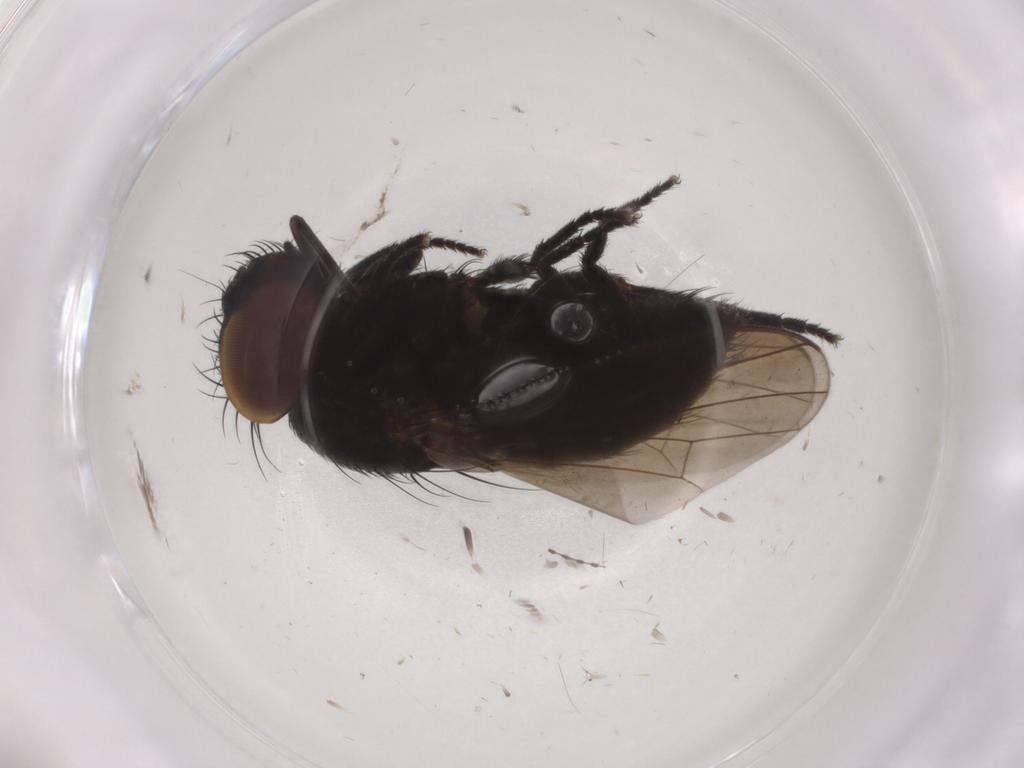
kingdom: Animalia
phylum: Arthropoda
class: Insecta
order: Diptera
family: Milichiidae
